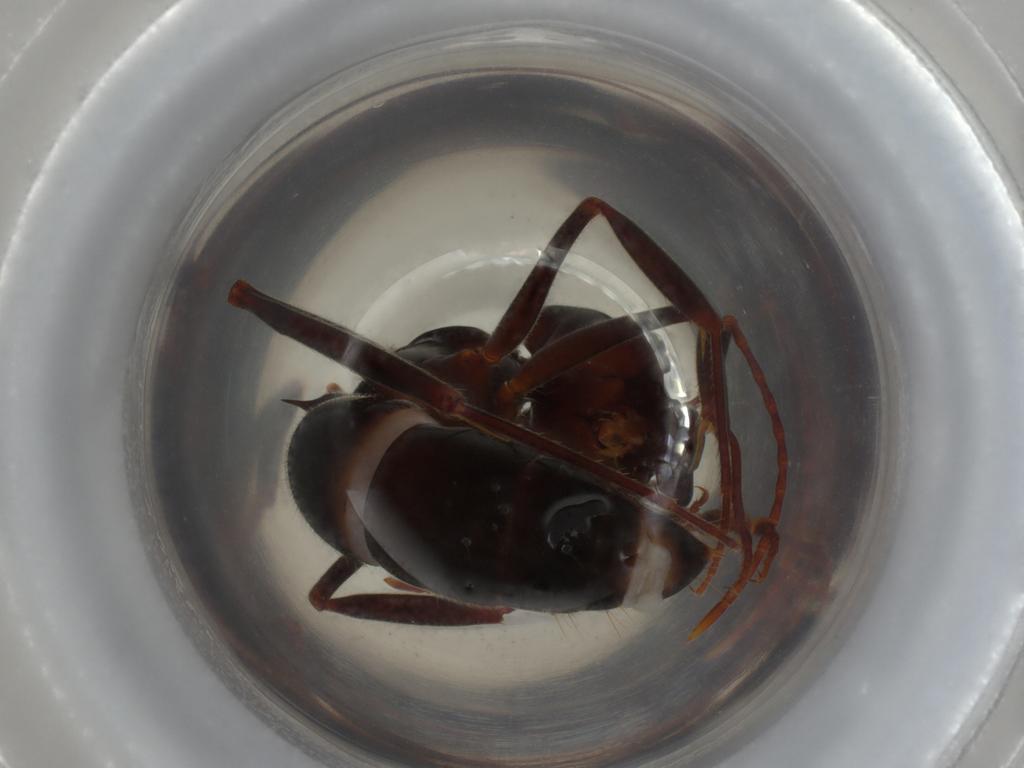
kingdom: Animalia
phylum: Arthropoda
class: Insecta
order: Hymenoptera
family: Formicidae
